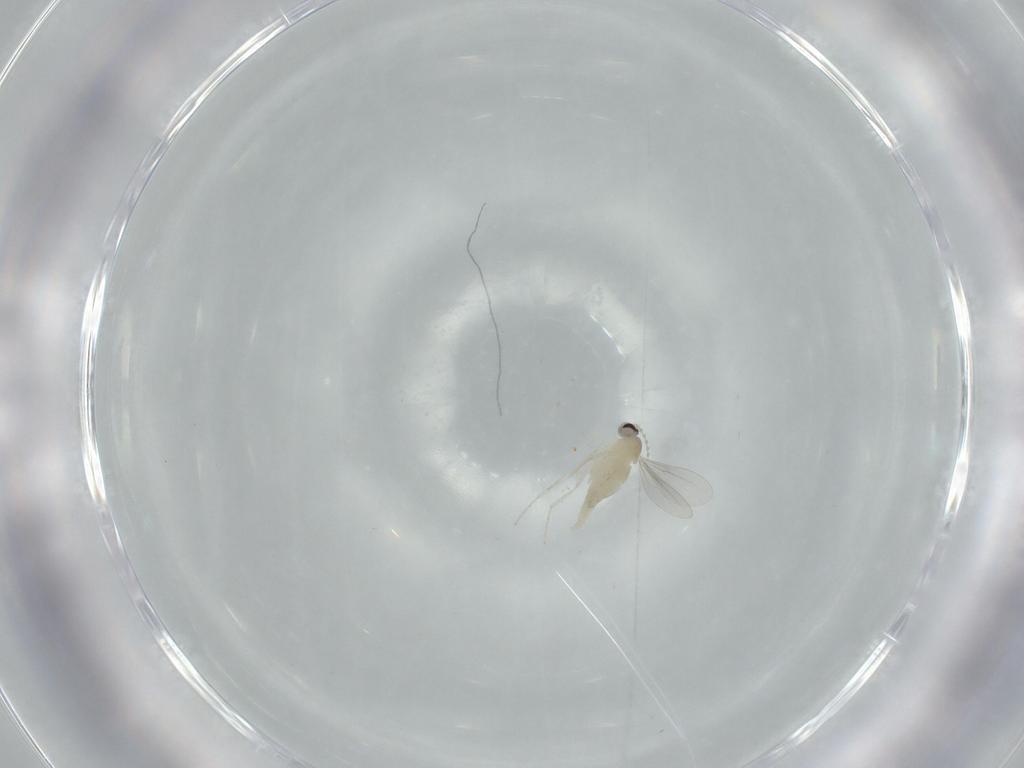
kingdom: Animalia
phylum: Arthropoda
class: Insecta
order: Diptera
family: Cecidomyiidae
